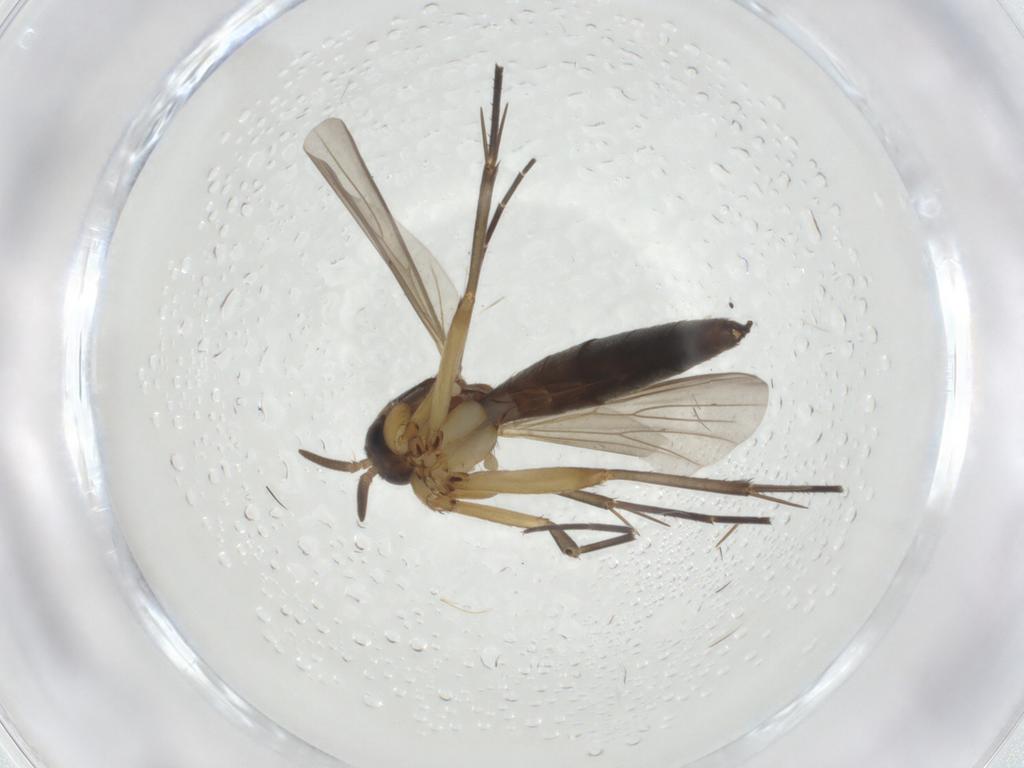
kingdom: Animalia
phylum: Arthropoda
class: Insecta
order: Diptera
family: Mycetophilidae
